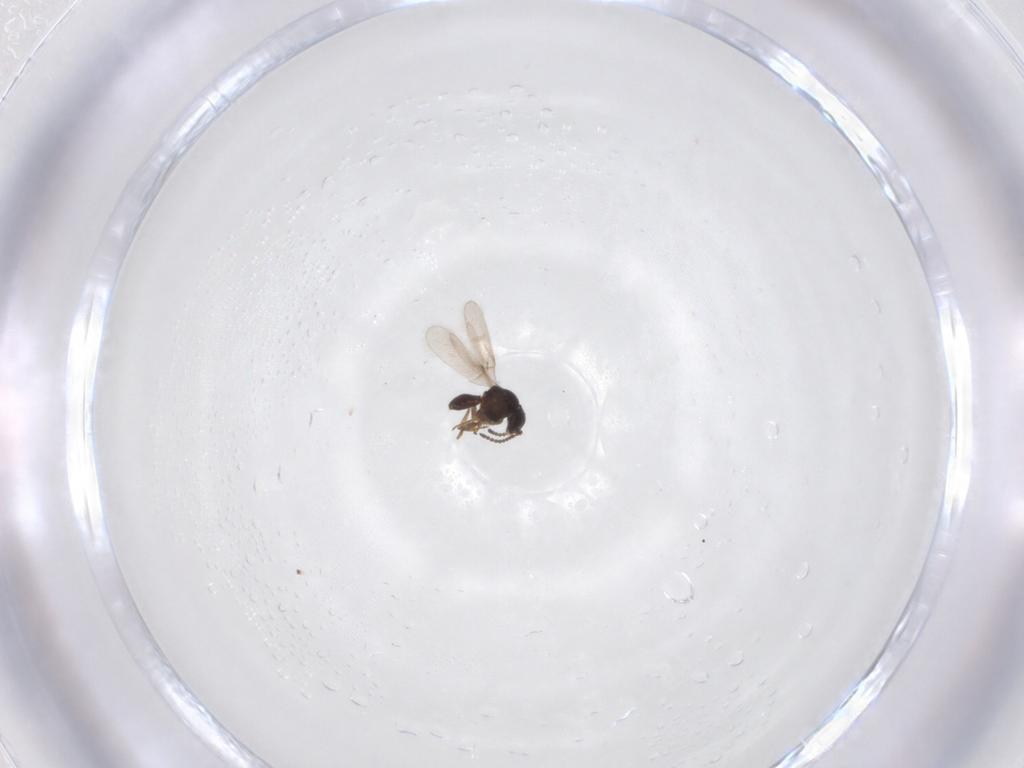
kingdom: Animalia
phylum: Arthropoda
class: Insecta
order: Hymenoptera
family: Scelionidae
